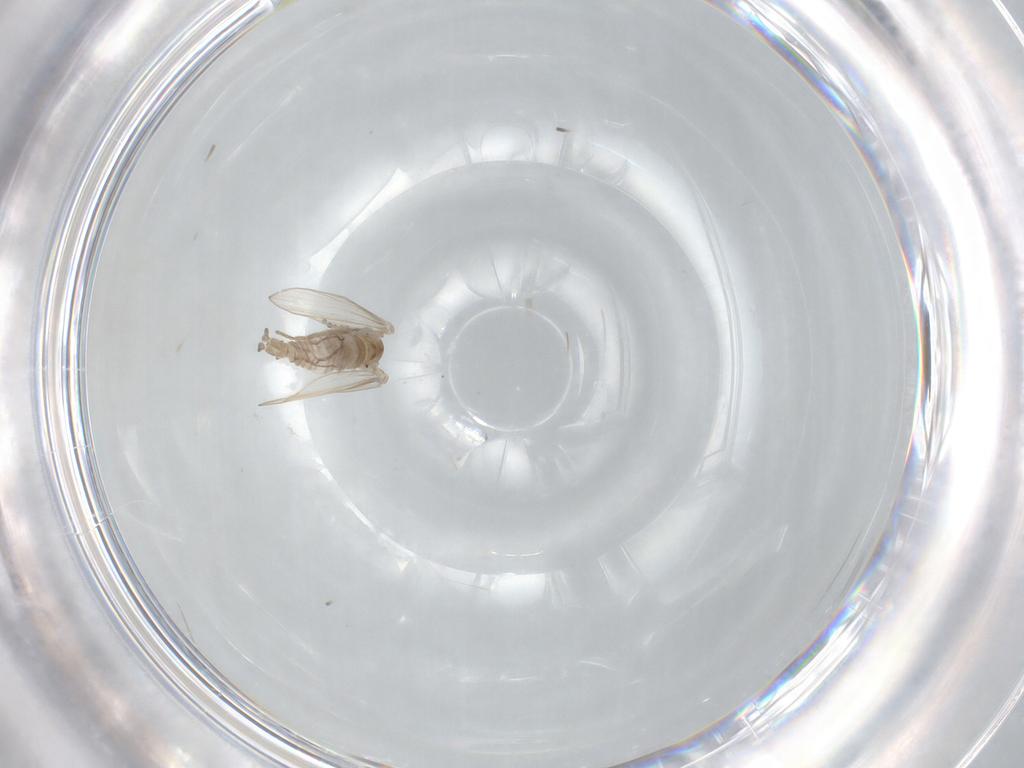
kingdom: Animalia
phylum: Arthropoda
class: Insecta
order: Diptera
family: Psychodidae
